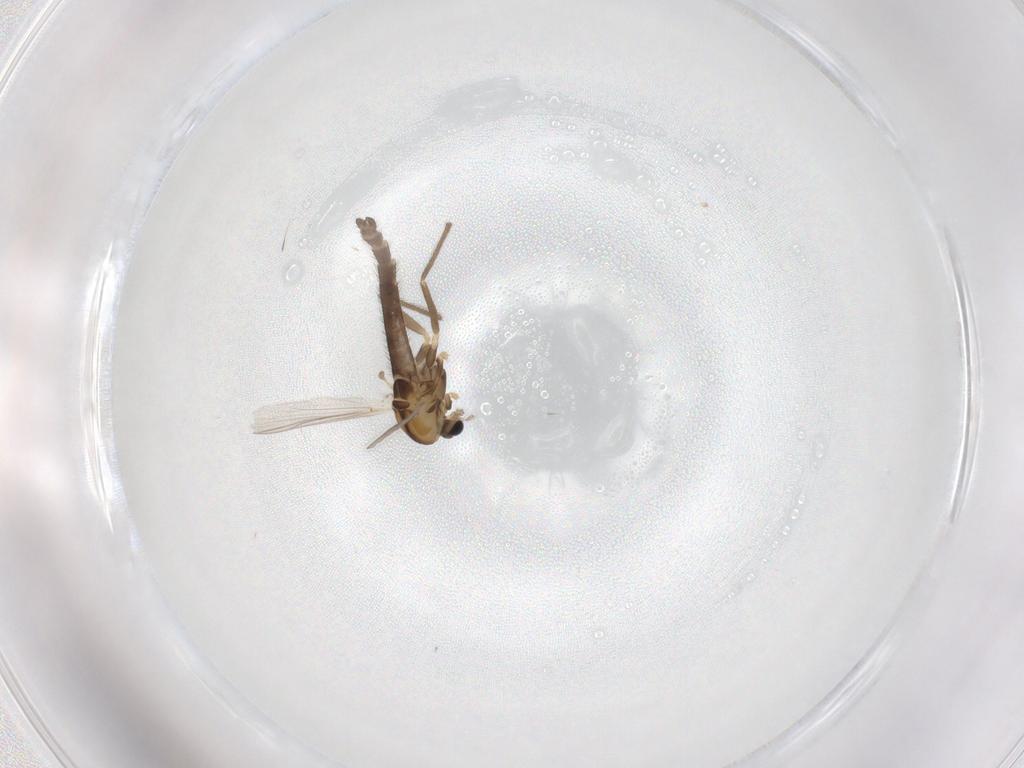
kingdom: Animalia
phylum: Arthropoda
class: Insecta
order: Diptera
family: Chironomidae
